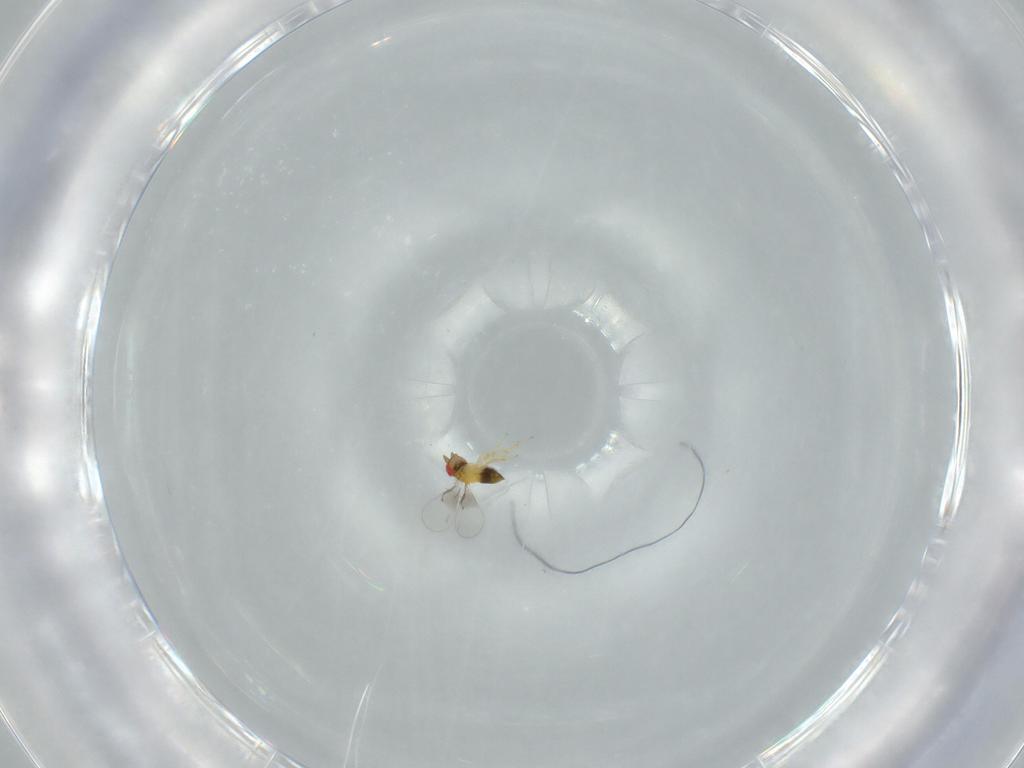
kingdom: Animalia
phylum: Arthropoda
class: Insecta
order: Hymenoptera
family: Trichogrammatidae
